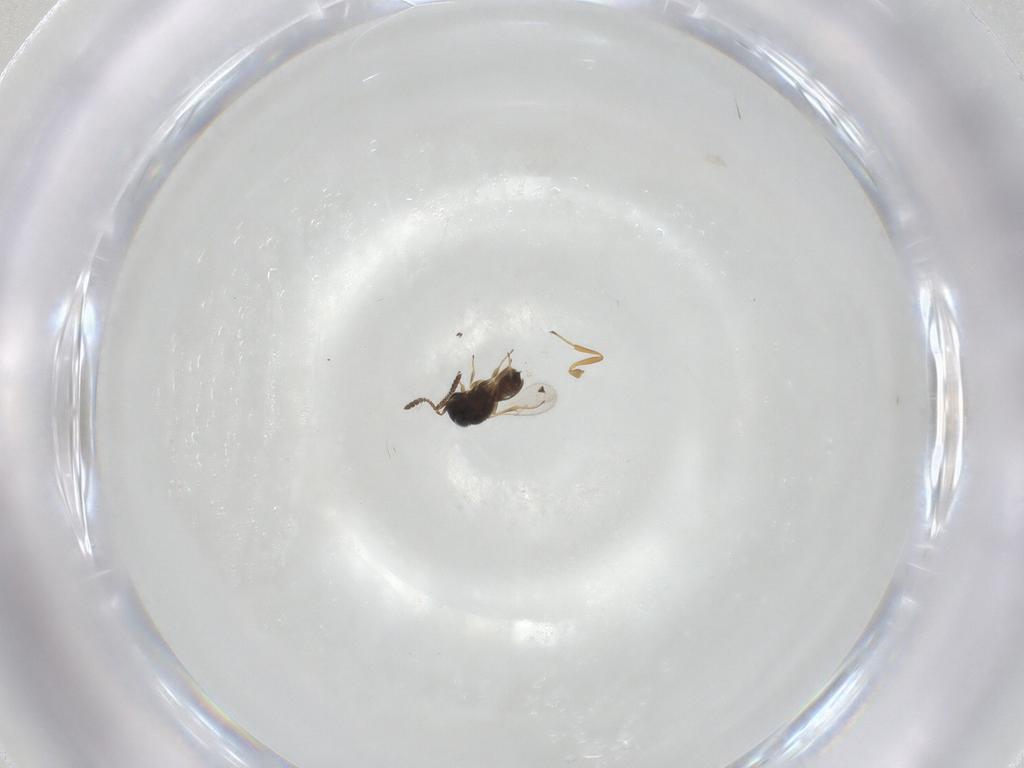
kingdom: Animalia
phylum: Arthropoda
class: Insecta
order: Hymenoptera
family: Scelionidae
